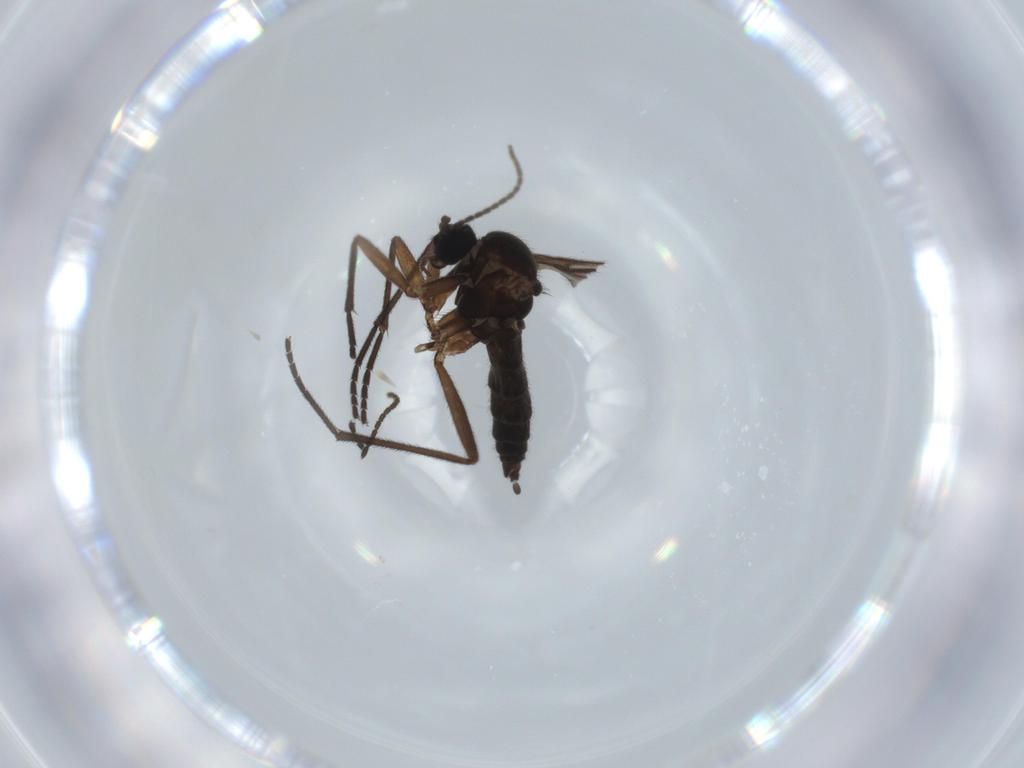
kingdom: Animalia
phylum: Arthropoda
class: Insecta
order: Diptera
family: Sciaridae
